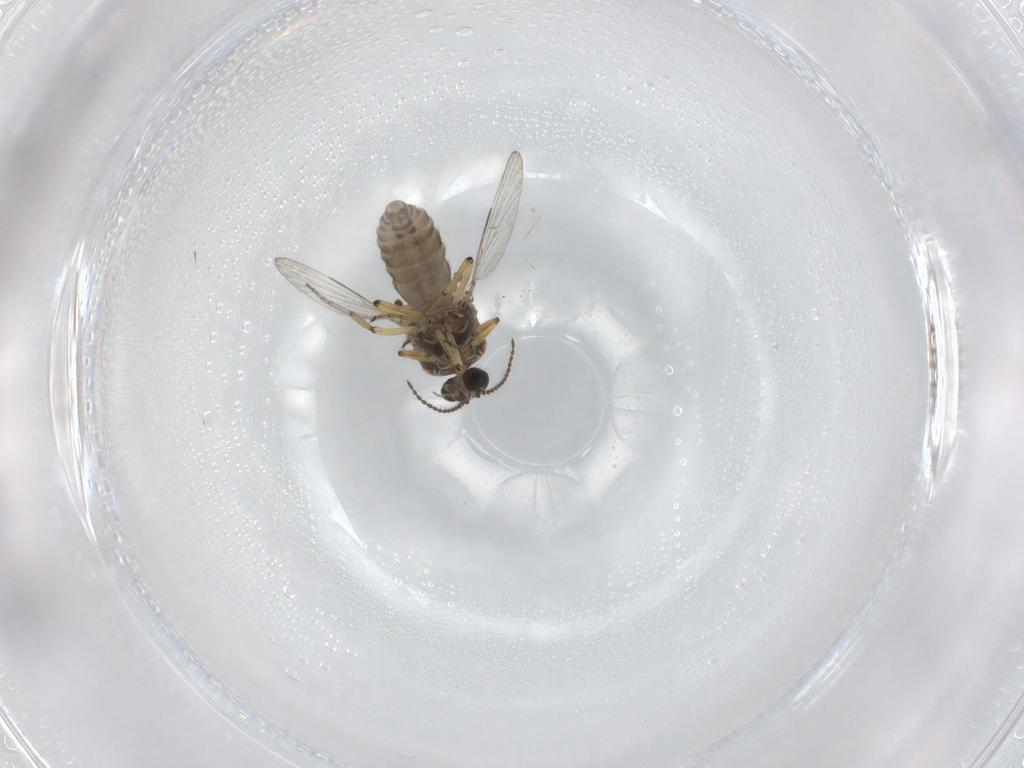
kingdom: Animalia
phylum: Arthropoda
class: Insecta
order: Diptera
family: Ceratopogonidae
